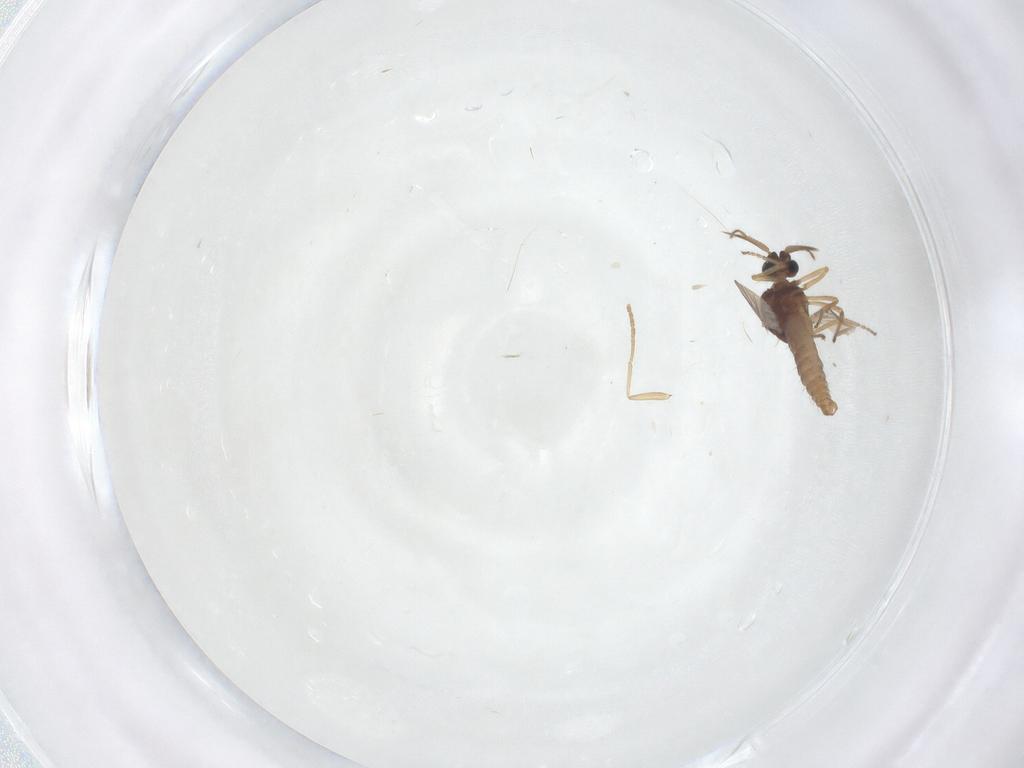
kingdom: Animalia
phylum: Arthropoda
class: Insecta
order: Diptera
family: Ceratopogonidae
